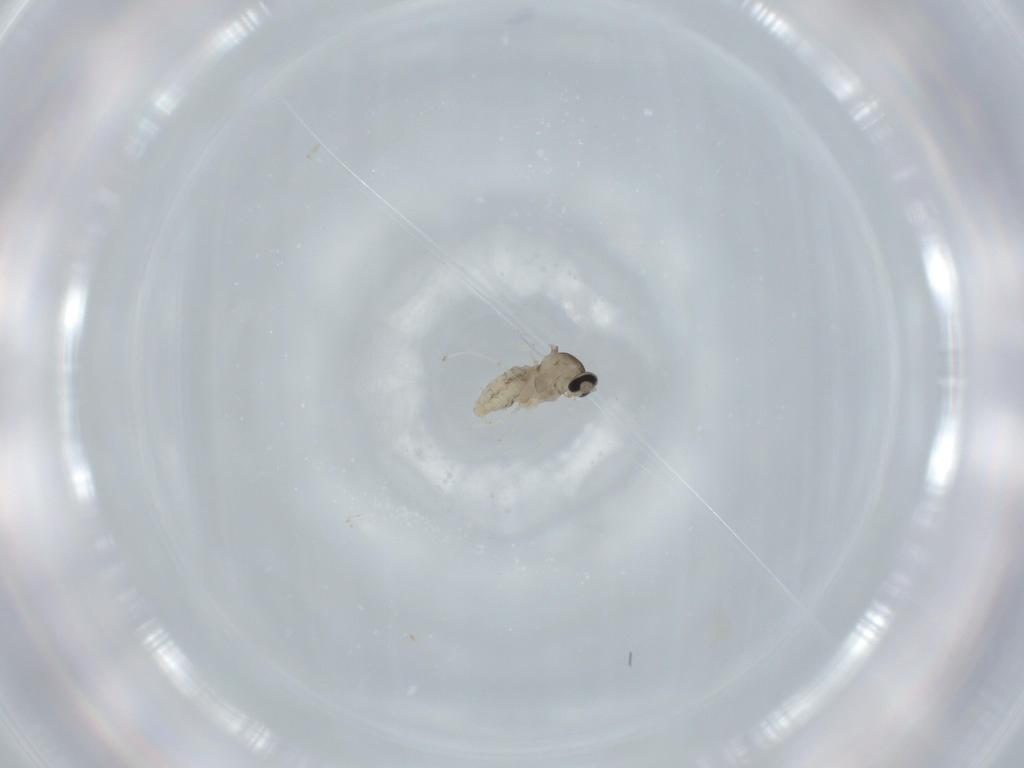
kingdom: Animalia
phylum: Arthropoda
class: Insecta
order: Diptera
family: Cecidomyiidae
